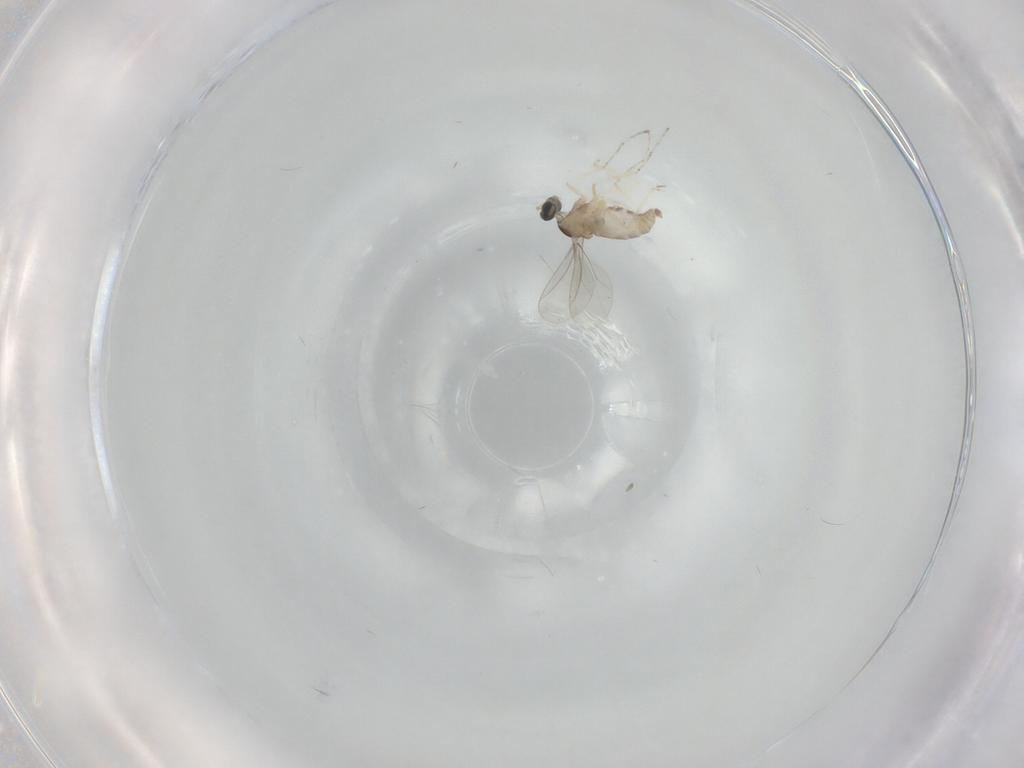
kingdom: Animalia
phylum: Arthropoda
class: Insecta
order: Diptera
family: Cecidomyiidae
